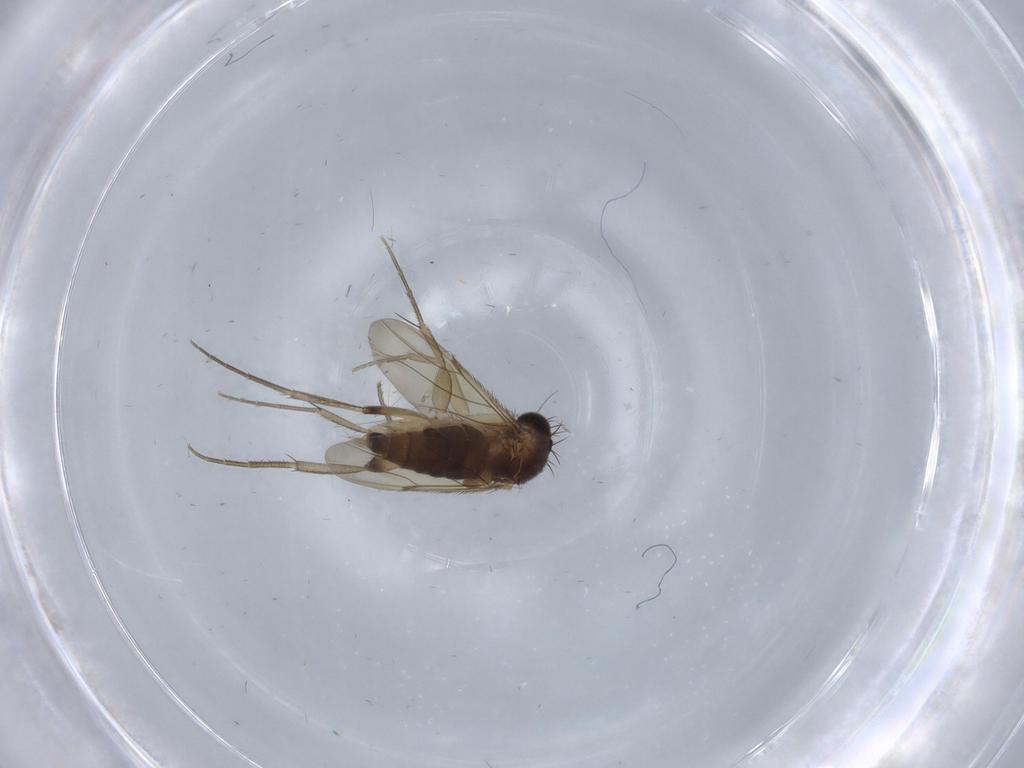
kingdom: Animalia
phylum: Arthropoda
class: Insecta
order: Diptera
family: Phoridae
